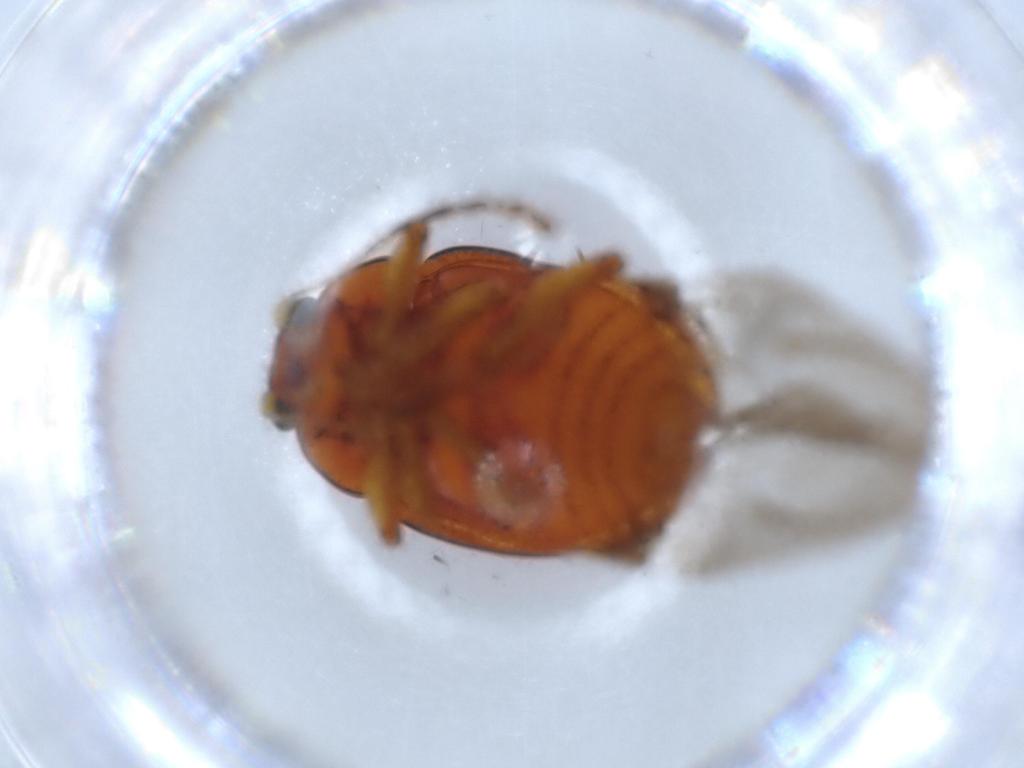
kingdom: Animalia
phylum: Arthropoda
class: Insecta
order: Coleoptera
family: Chrysomelidae
